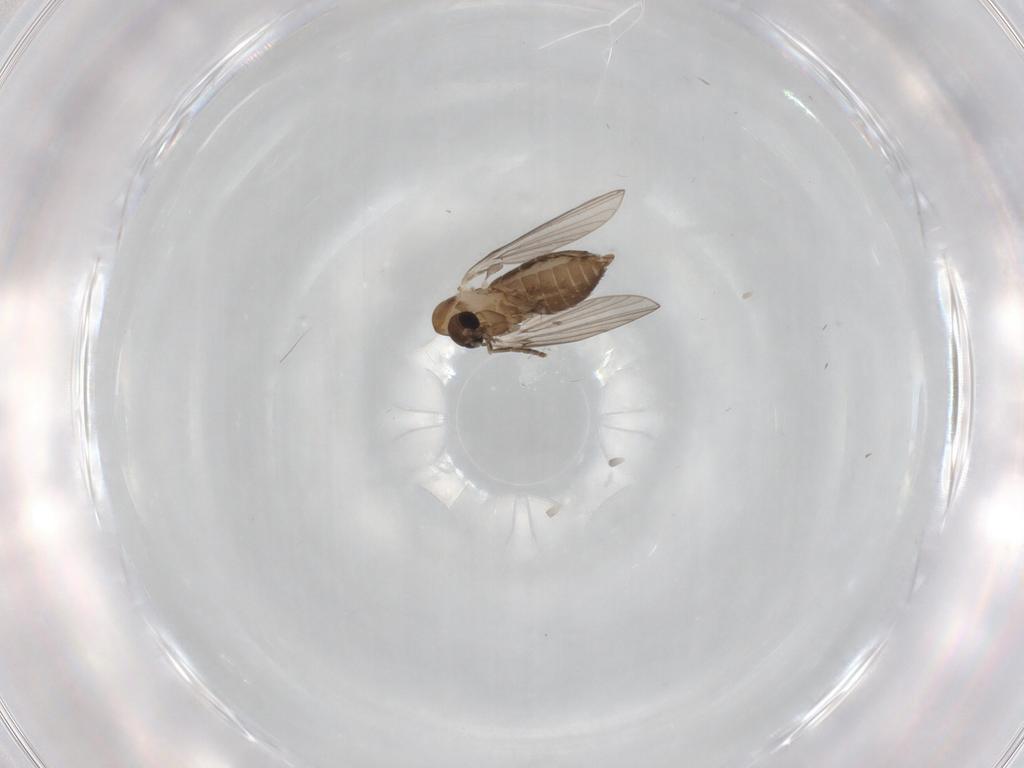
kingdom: Animalia
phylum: Arthropoda
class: Insecta
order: Diptera
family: Psychodidae
